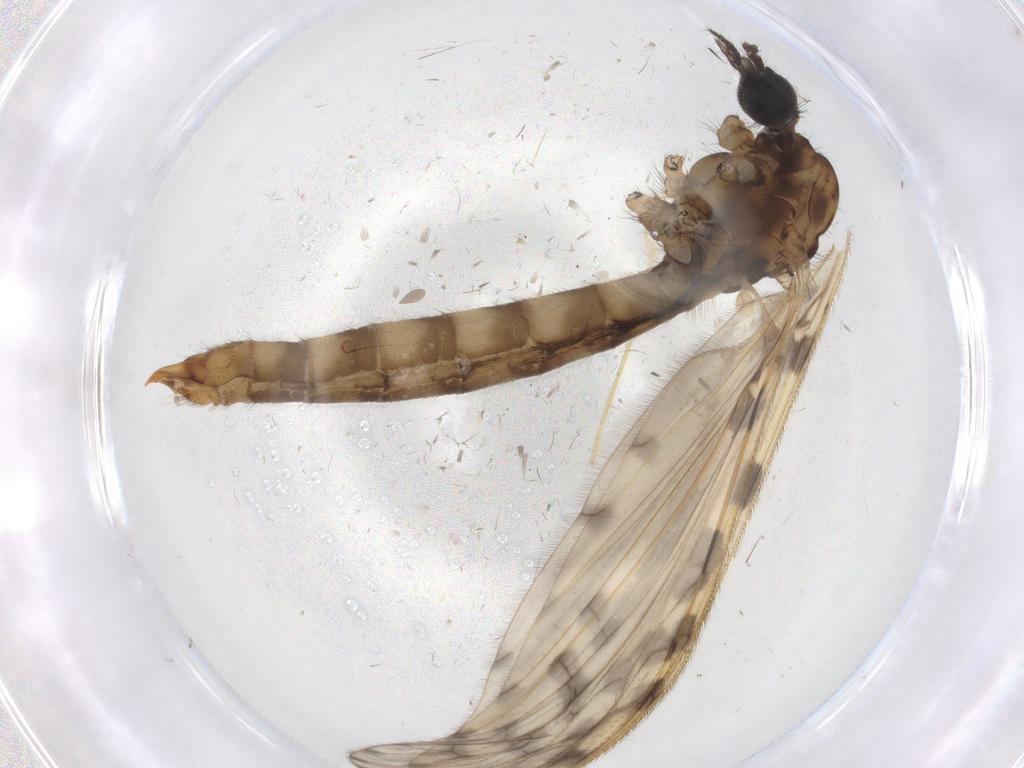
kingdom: Animalia
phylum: Arthropoda
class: Insecta
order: Diptera
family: Limoniidae
